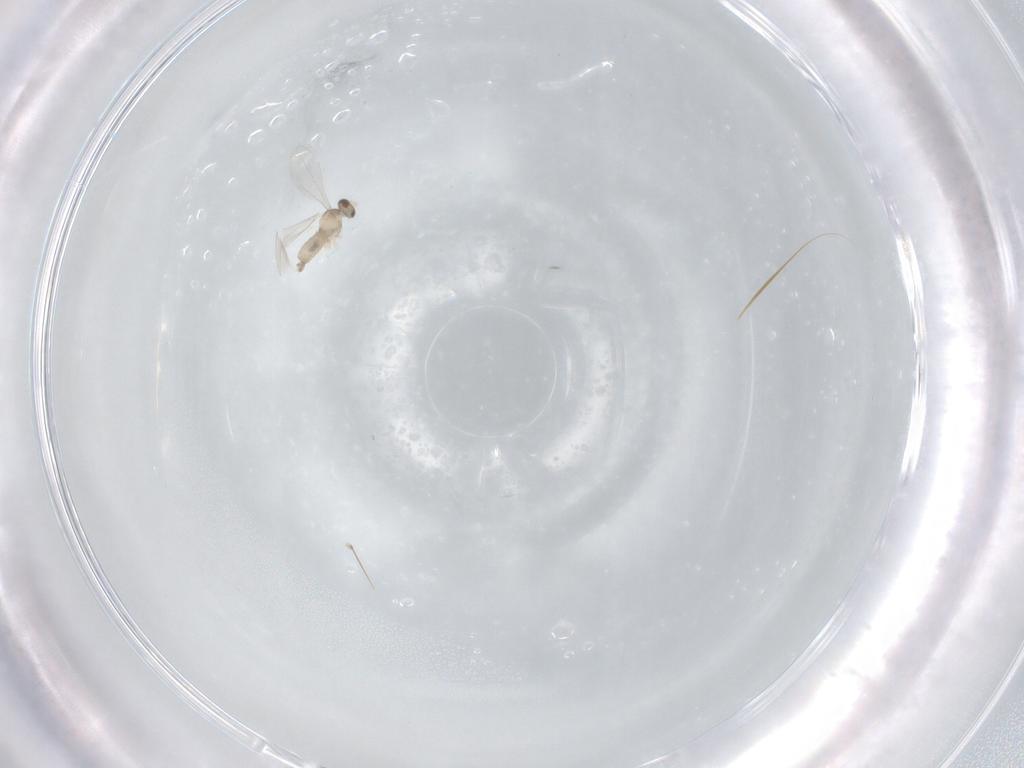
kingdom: Animalia
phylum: Arthropoda
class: Insecta
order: Diptera
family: Cecidomyiidae
